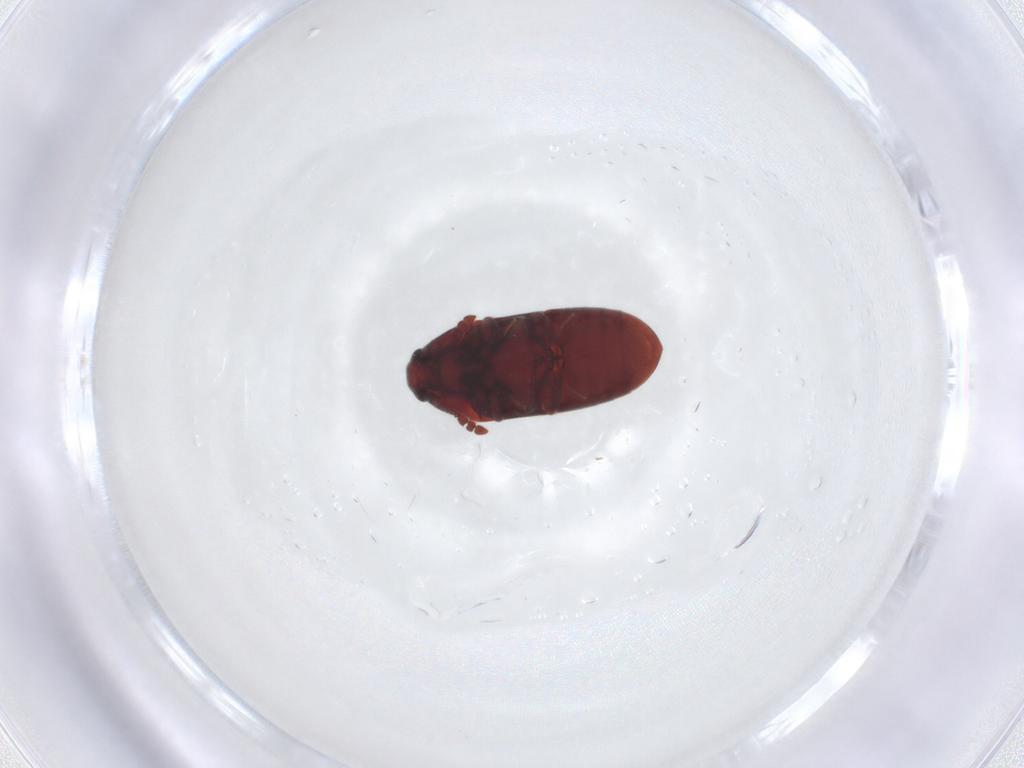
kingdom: Animalia
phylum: Arthropoda
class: Insecta
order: Coleoptera
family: Throscidae
